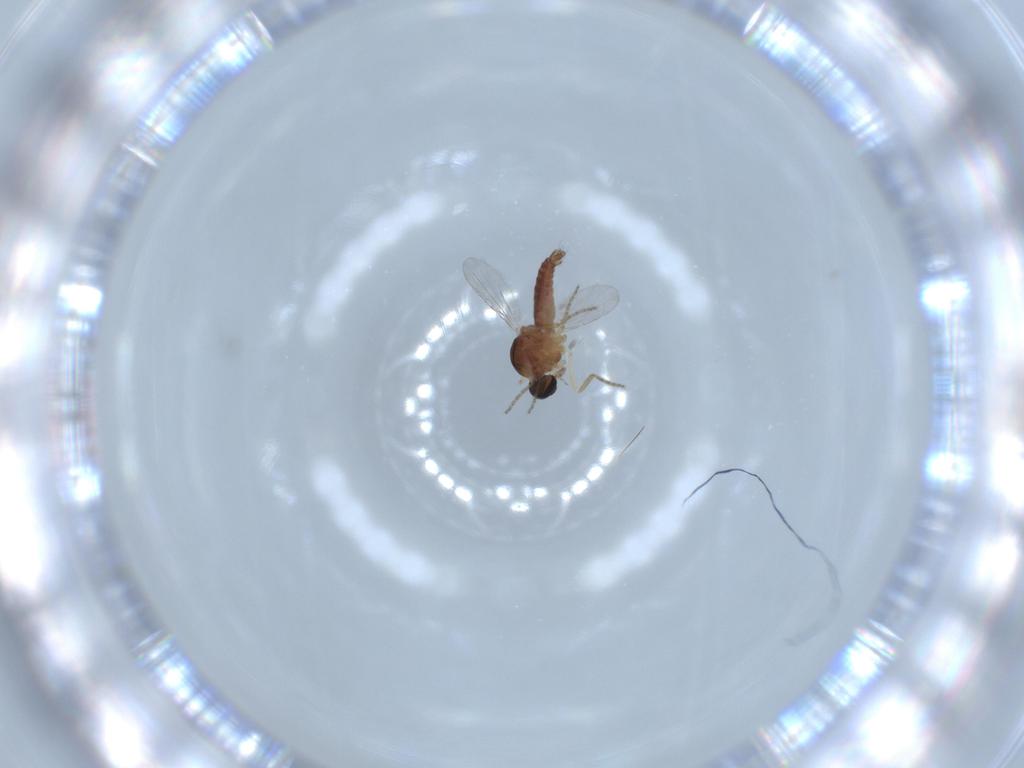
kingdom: Animalia
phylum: Arthropoda
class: Insecta
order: Diptera
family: Ceratopogonidae
